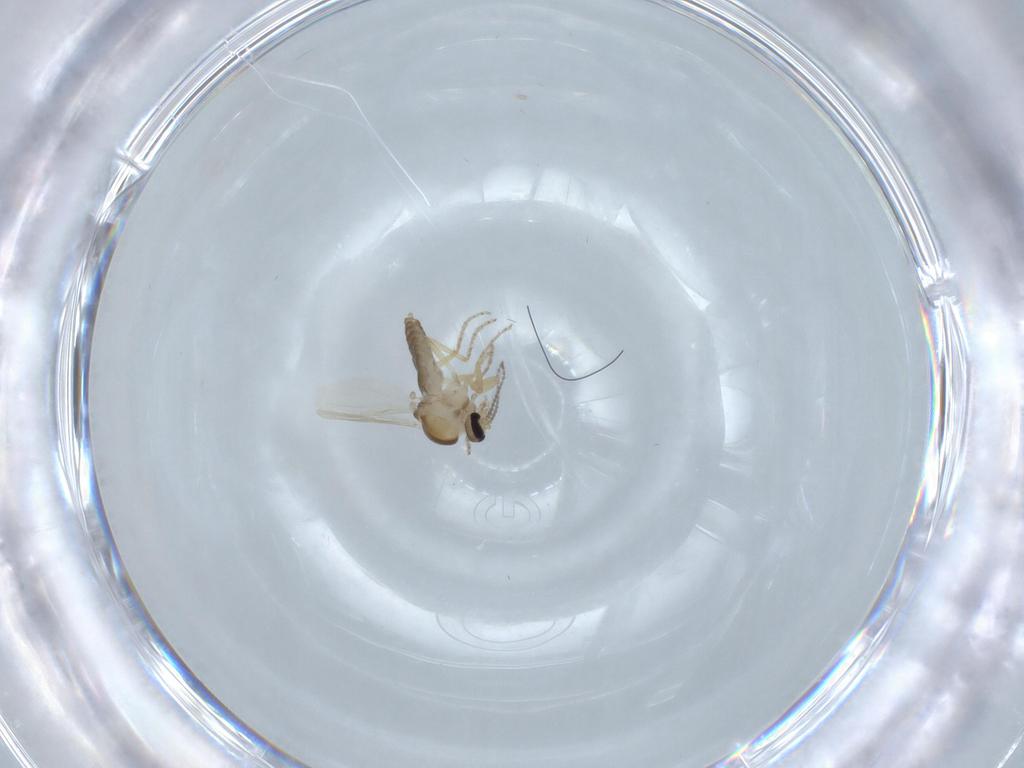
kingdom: Animalia
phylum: Arthropoda
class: Insecta
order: Diptera
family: Ceratopogonidae
